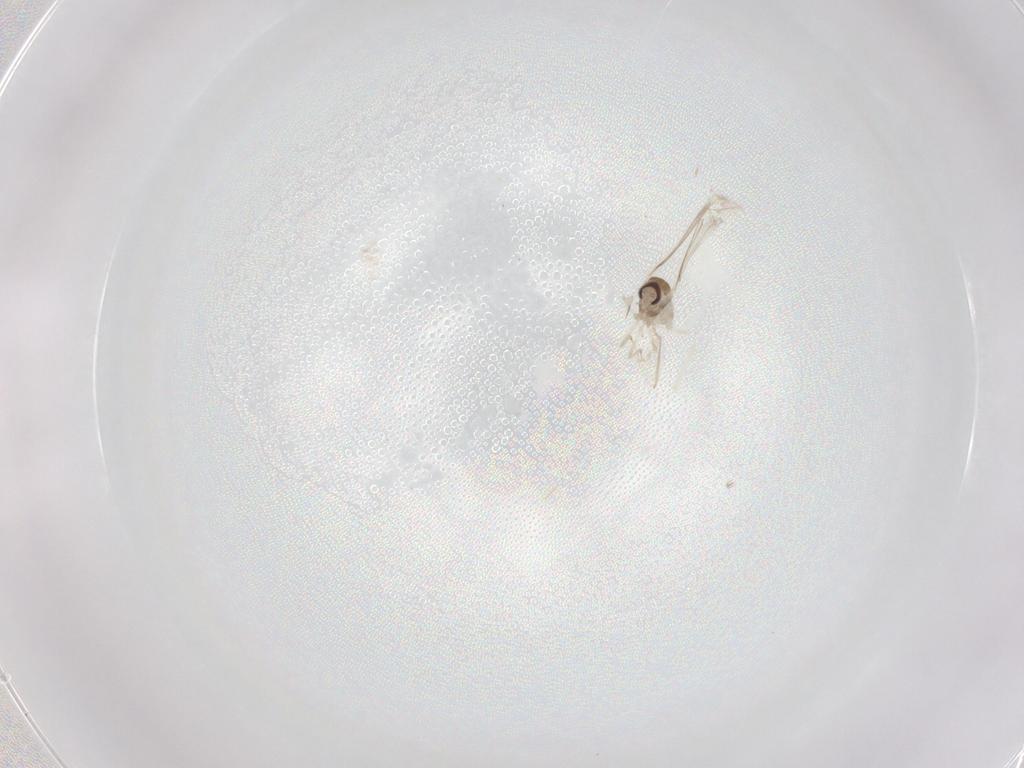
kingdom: Animalia
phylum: Arthropoda
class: Insecta
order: Diptera
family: Cecidomyiidae
